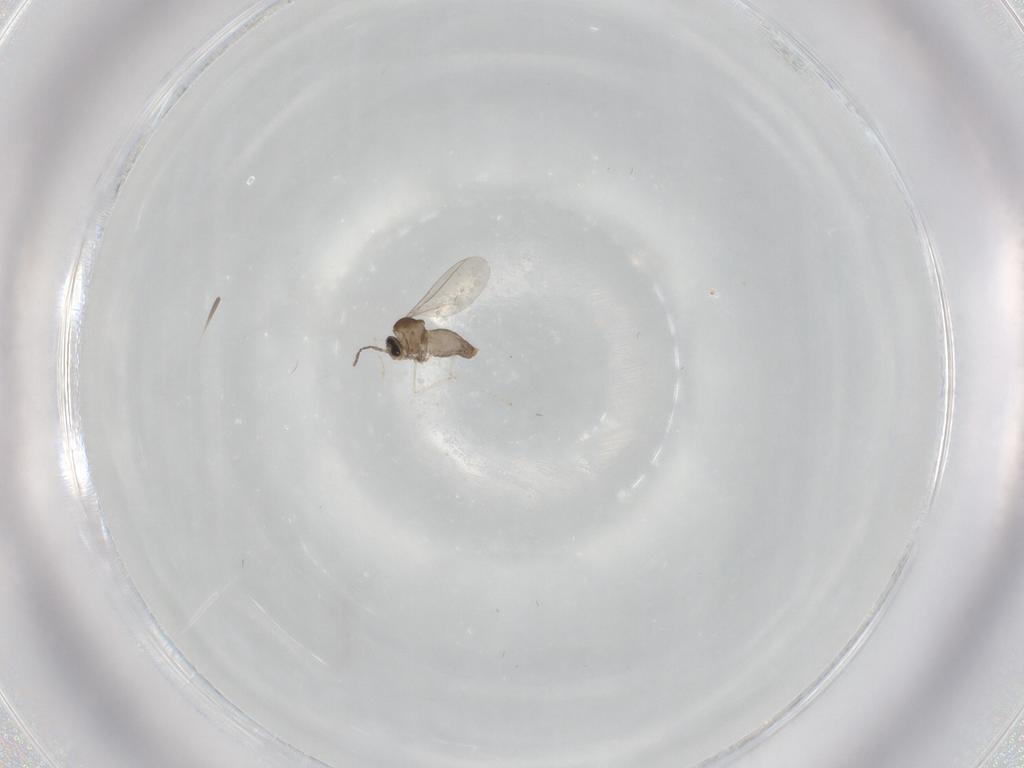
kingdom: Animalia
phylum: Arthropoda
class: Insecta
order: Diptera
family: Cecidomyiidae
